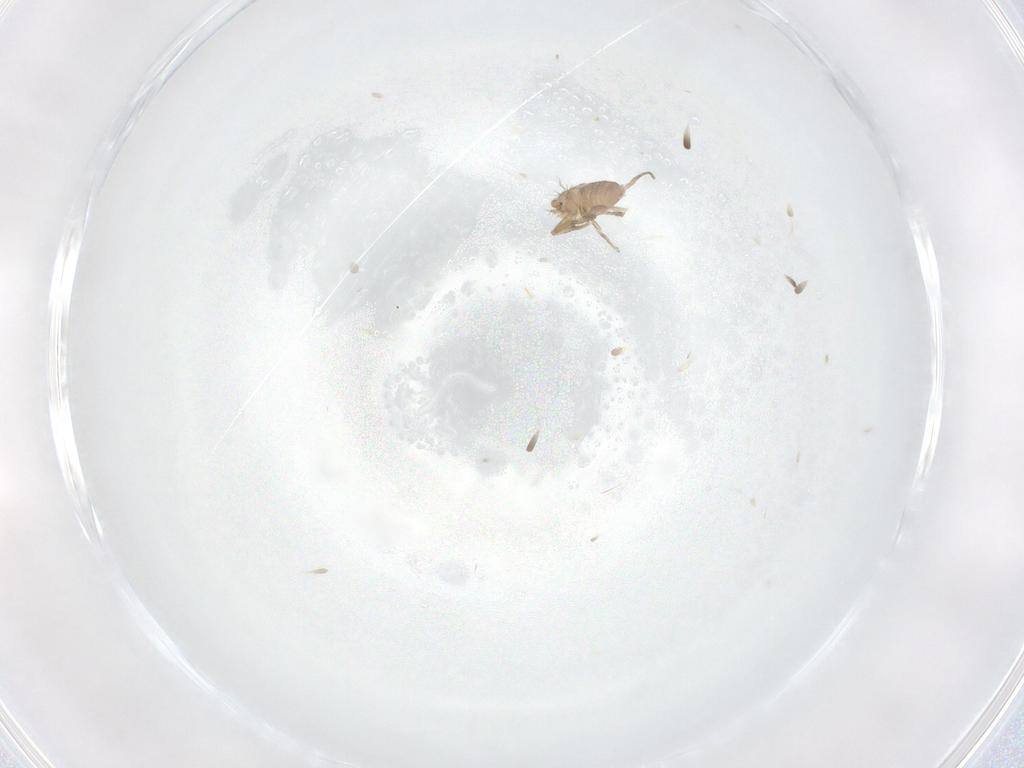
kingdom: Animalia
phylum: Arthropoda
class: Insecta
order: Diptera
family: Phoridae
